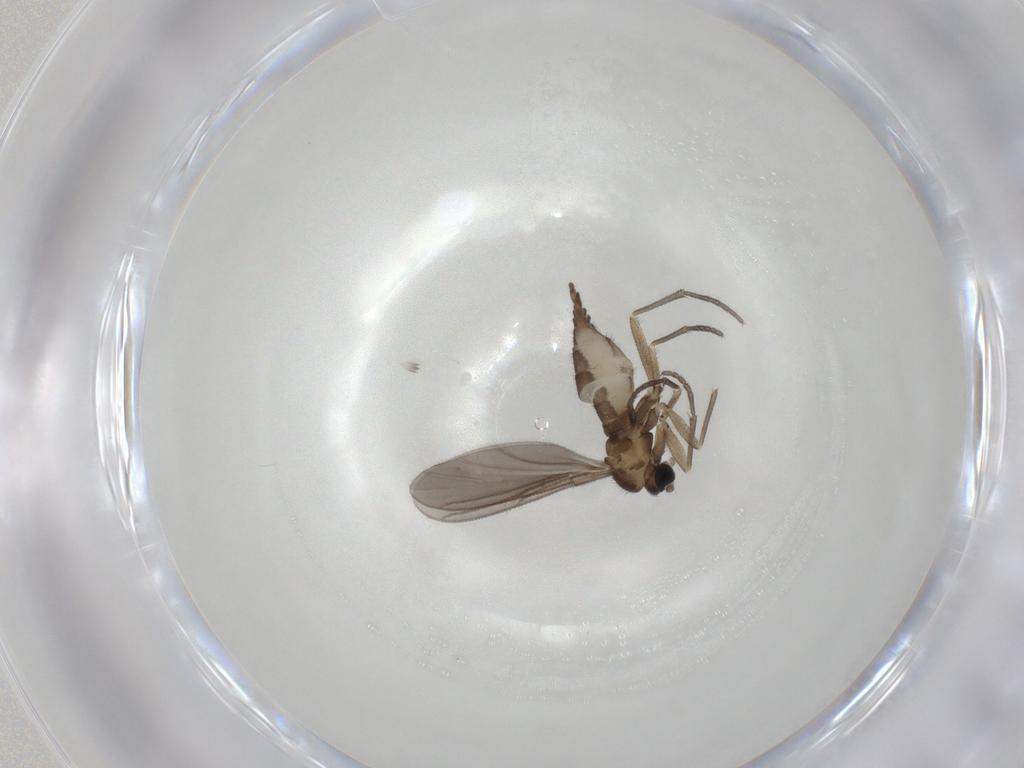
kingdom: Animalia
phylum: Arthropoda
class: Insecta
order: Diptera
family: Sciaridae
